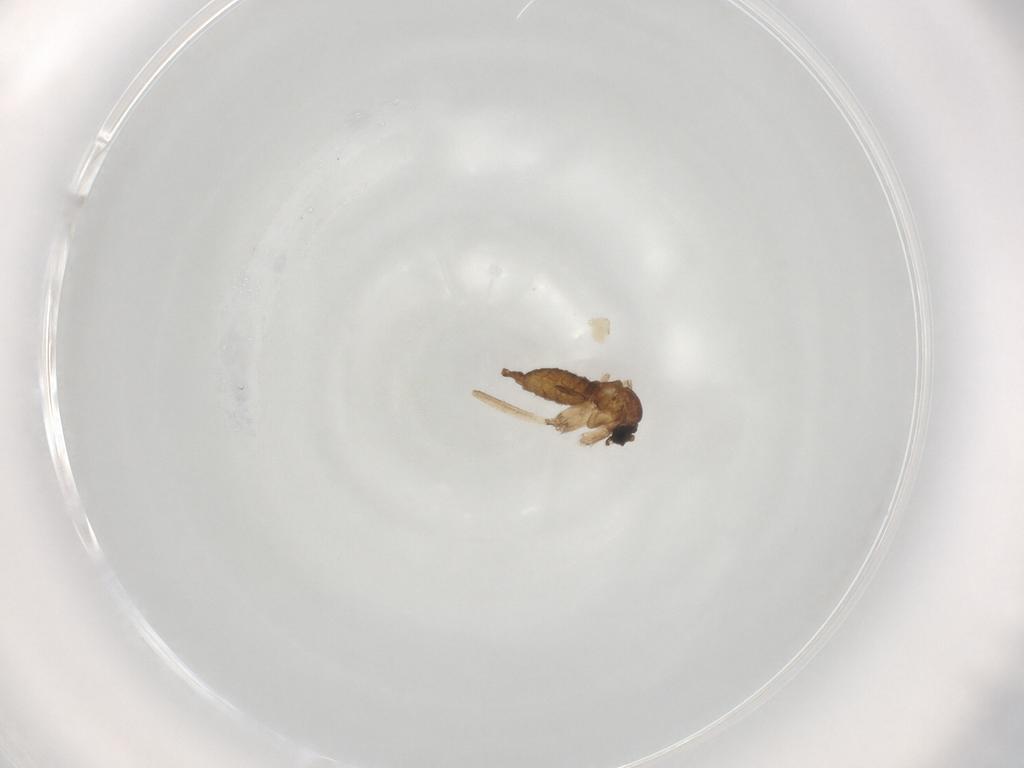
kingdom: Animalia
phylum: Arthropoda
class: Insecta
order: Diptera
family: Glossinidae
